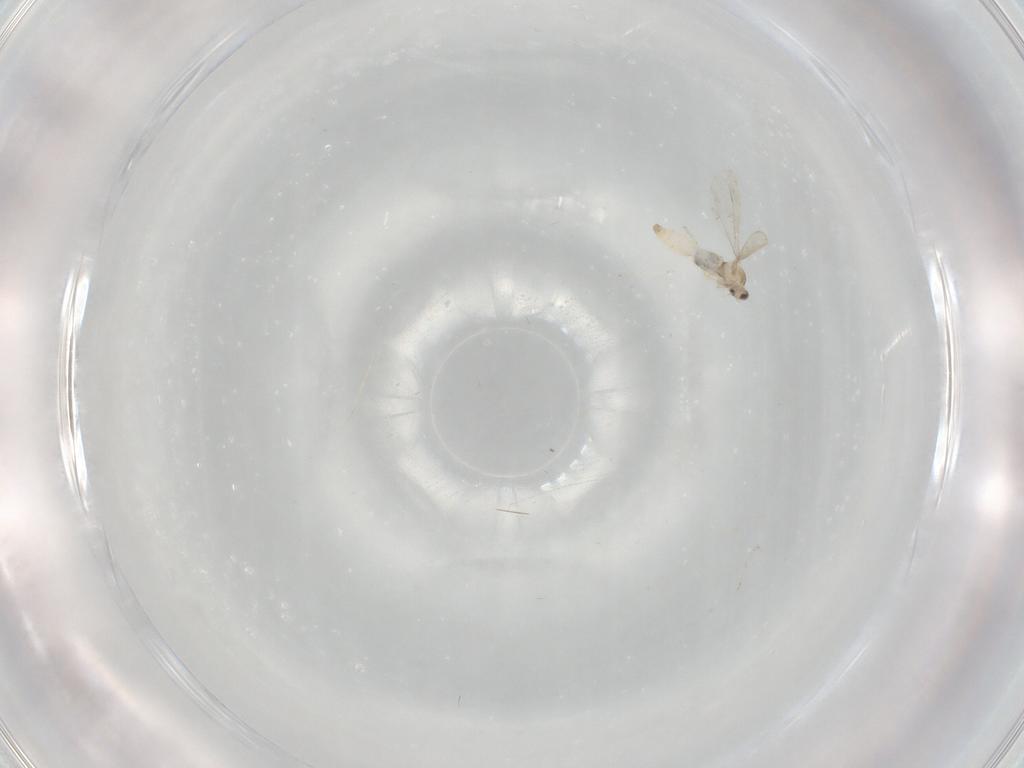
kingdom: Animalia
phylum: Arthropoda
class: Insecta
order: Diptera
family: Cecidomyiidae
